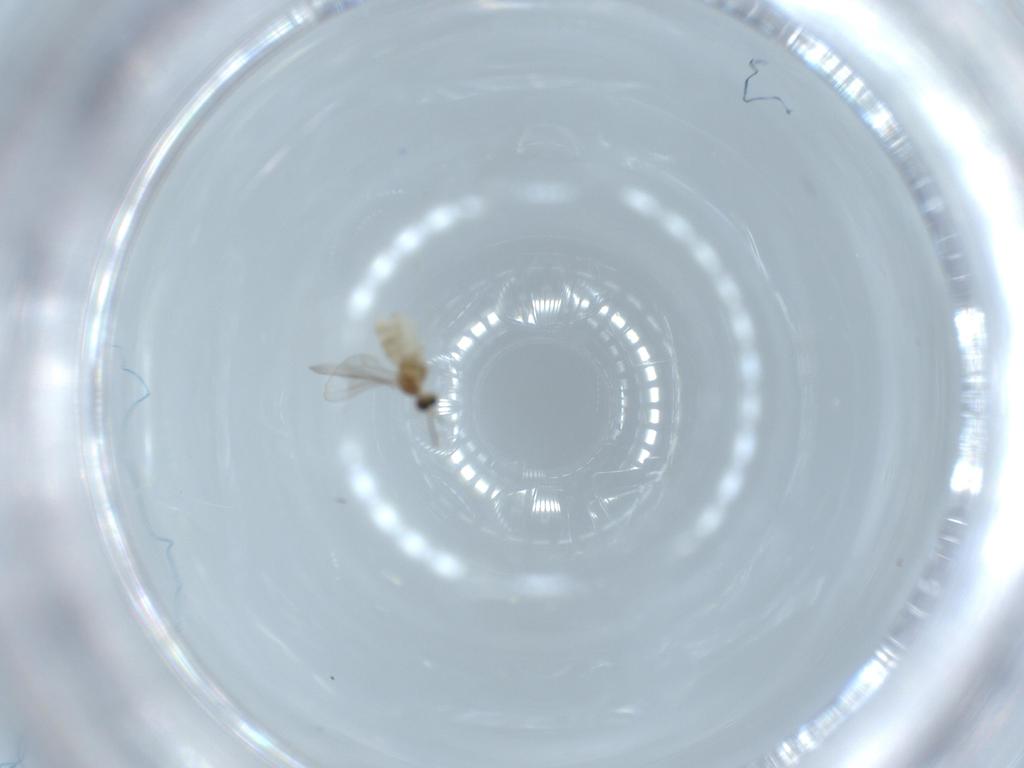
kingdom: Animalia
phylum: Arthropoda
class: Insecta
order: Diptera
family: Cecidomyiidae
